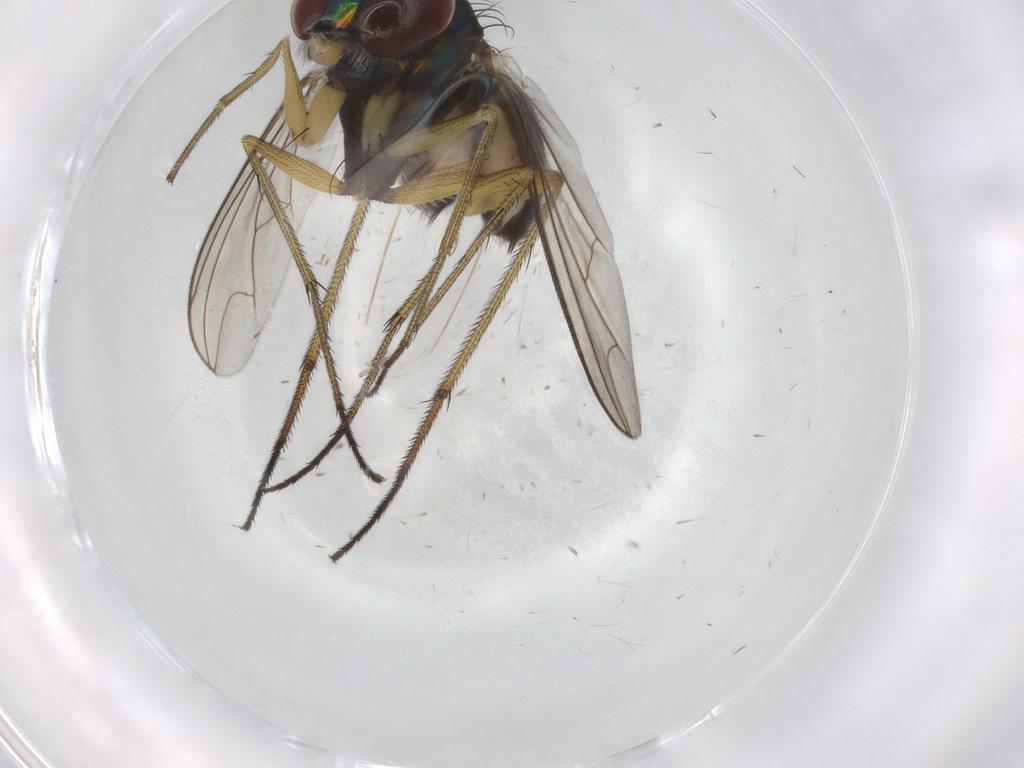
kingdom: Animalia
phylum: Arthropoda
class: Insecta
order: Diptera
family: Dolichopodidae
